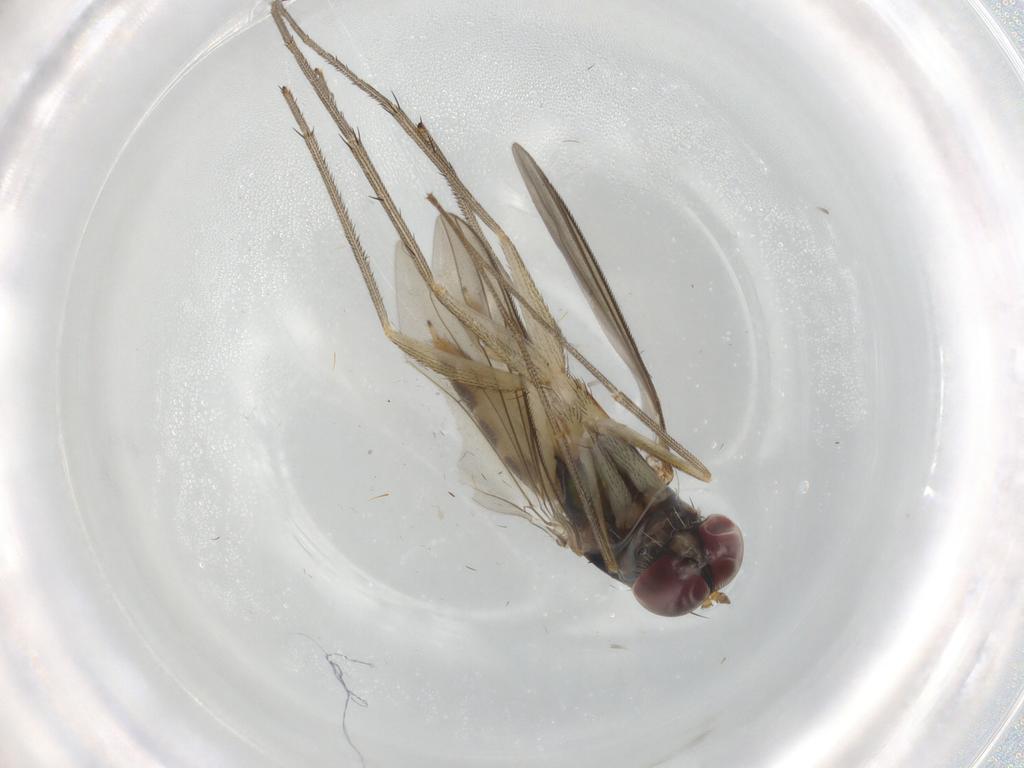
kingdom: Animalia
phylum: Arthropoda
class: Insecta
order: Diptera
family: Dolichopodidae
